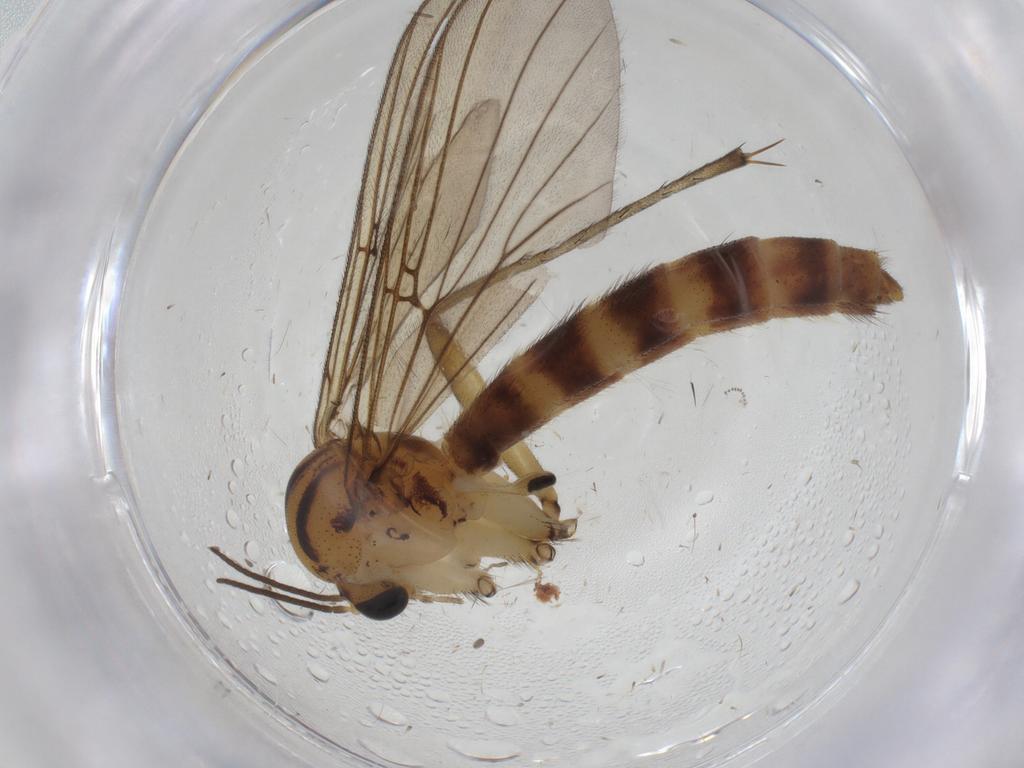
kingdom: Animalia
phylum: Arthropoda
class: Insecta
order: Diptera
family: Mycetophilidae
